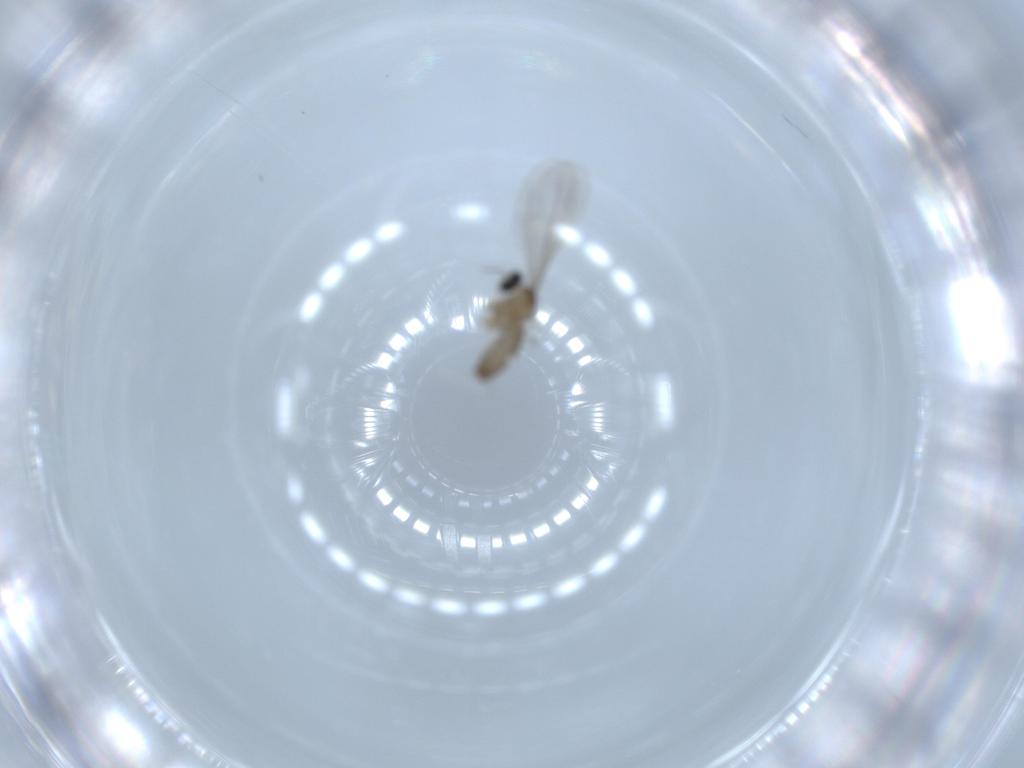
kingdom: Animalia
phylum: Arthropoda
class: Insecta
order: Diptera
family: Cecidomyiidae
